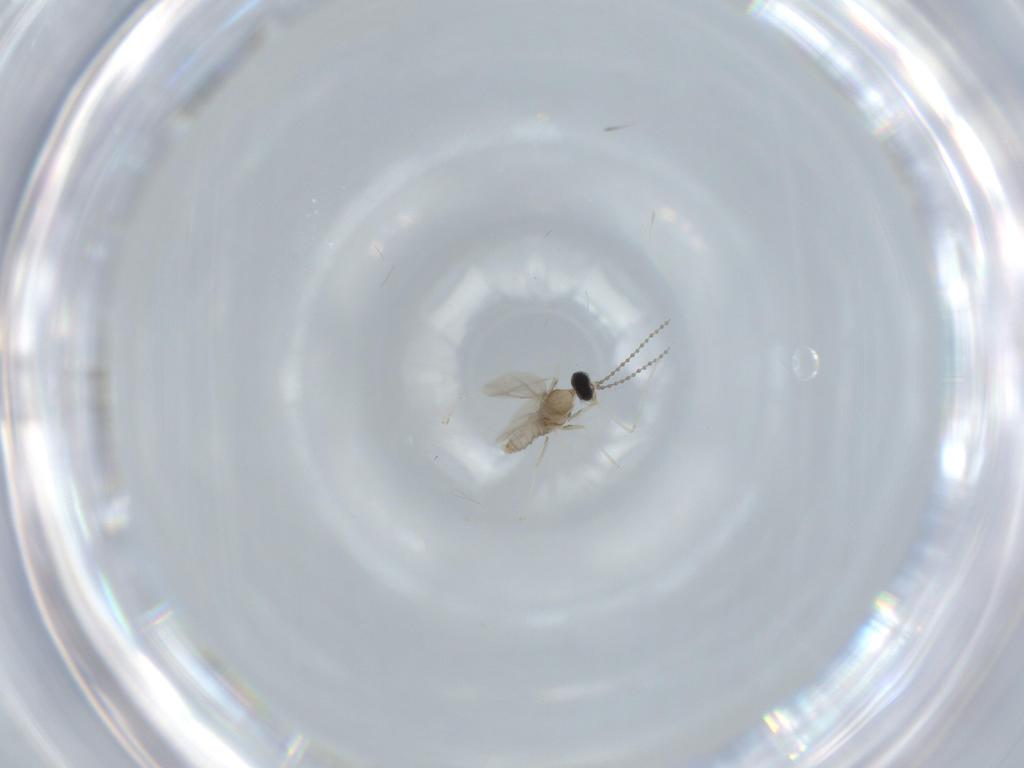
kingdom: Animalia
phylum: Arthropoda
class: Insecta
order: Diptera
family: Cecidomyiidae
